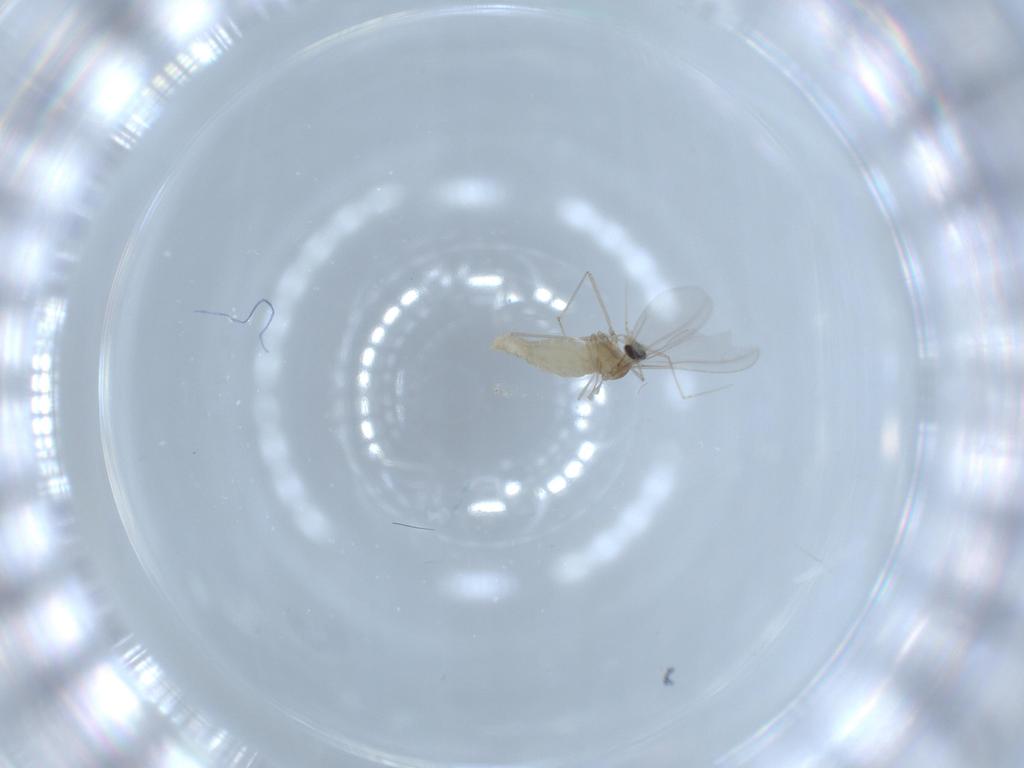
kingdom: Animalia
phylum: Arthropoda
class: Insecta
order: Diptera
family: Cecidomyiidae
